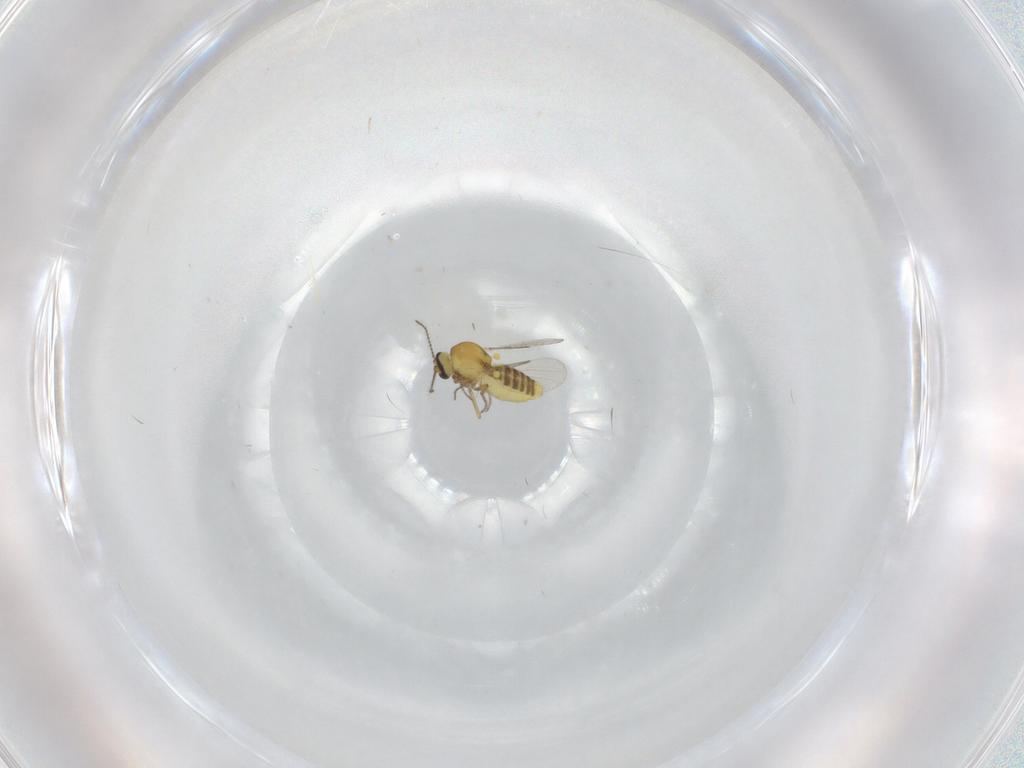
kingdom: Animalia
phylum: Arthropoda
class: Insecta
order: Diptera
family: Cecidomyiidae
